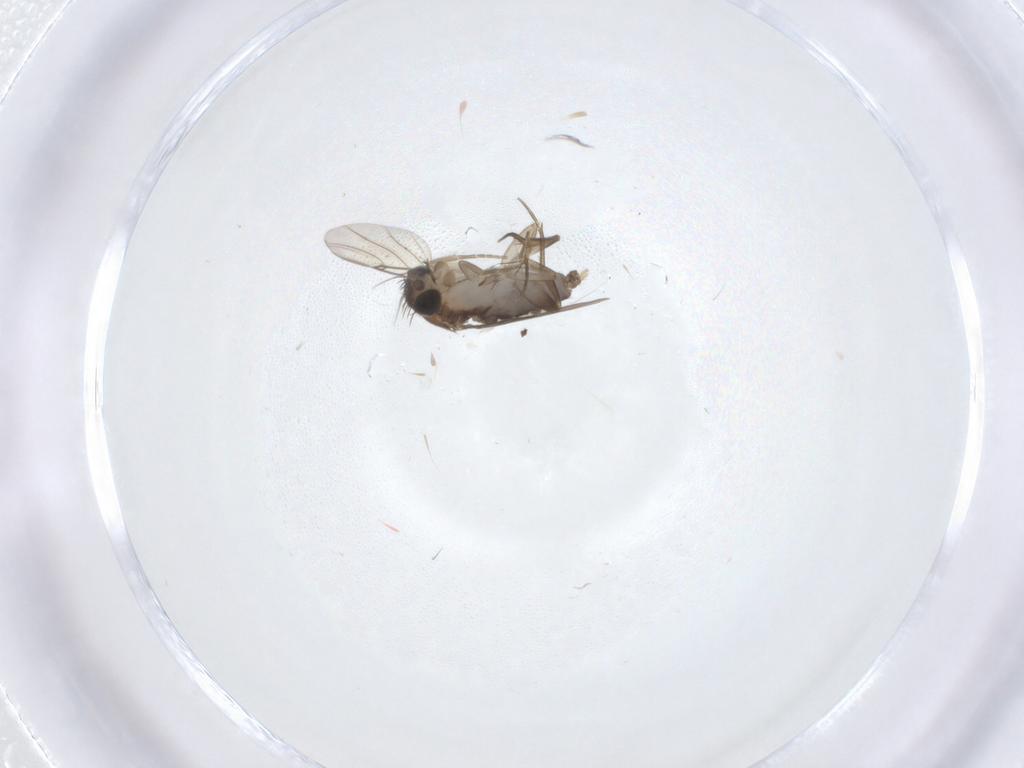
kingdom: Animalia
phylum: Arthropoda
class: Insecta
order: Diptera
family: Phoridae
